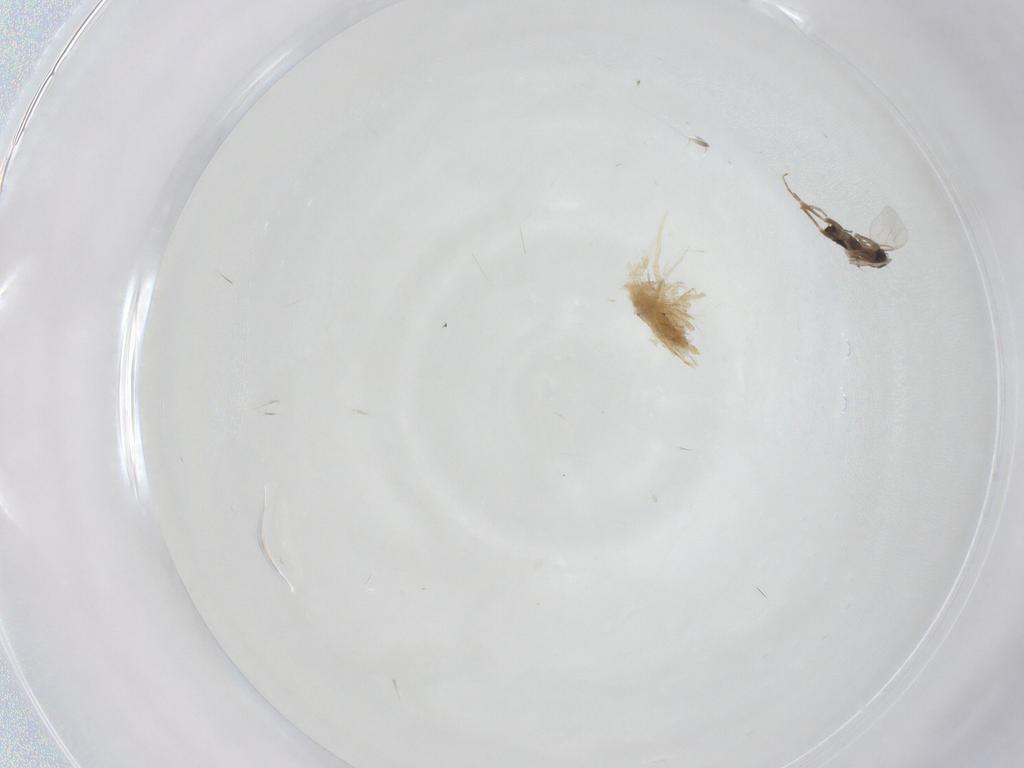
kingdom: Animalia
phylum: Arthropoda
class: Insecta
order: Diptera
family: Phoridae
